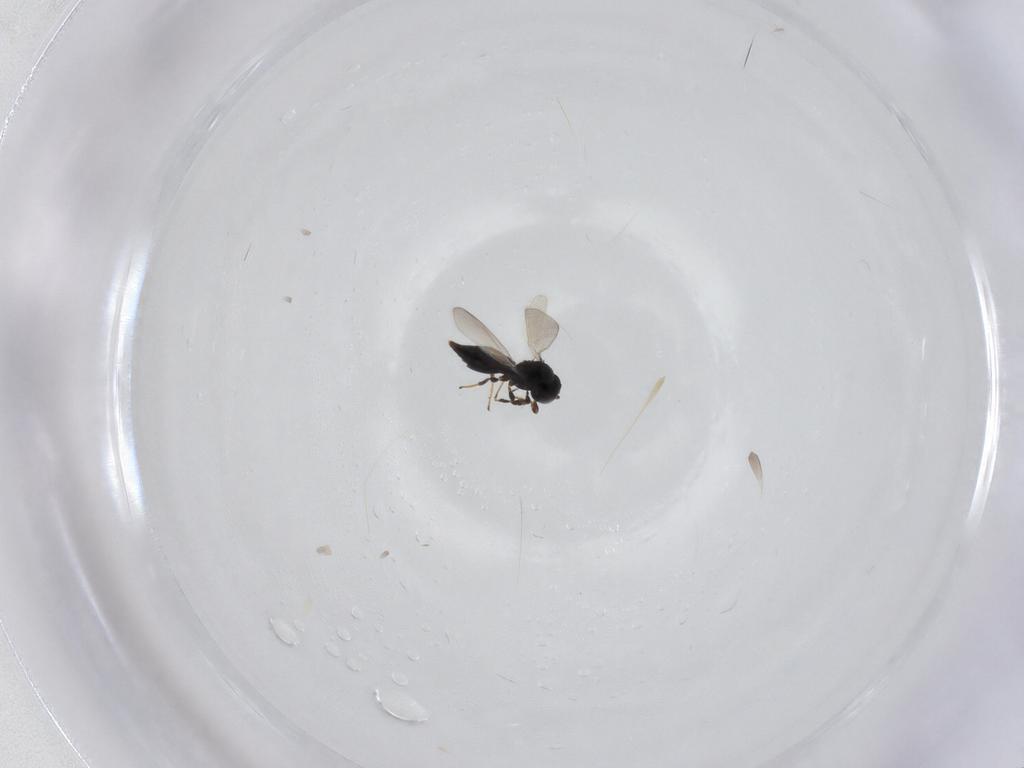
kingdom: Animalia
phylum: Arthropoda
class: Insecta
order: Hymenoptera
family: Platygastridae
